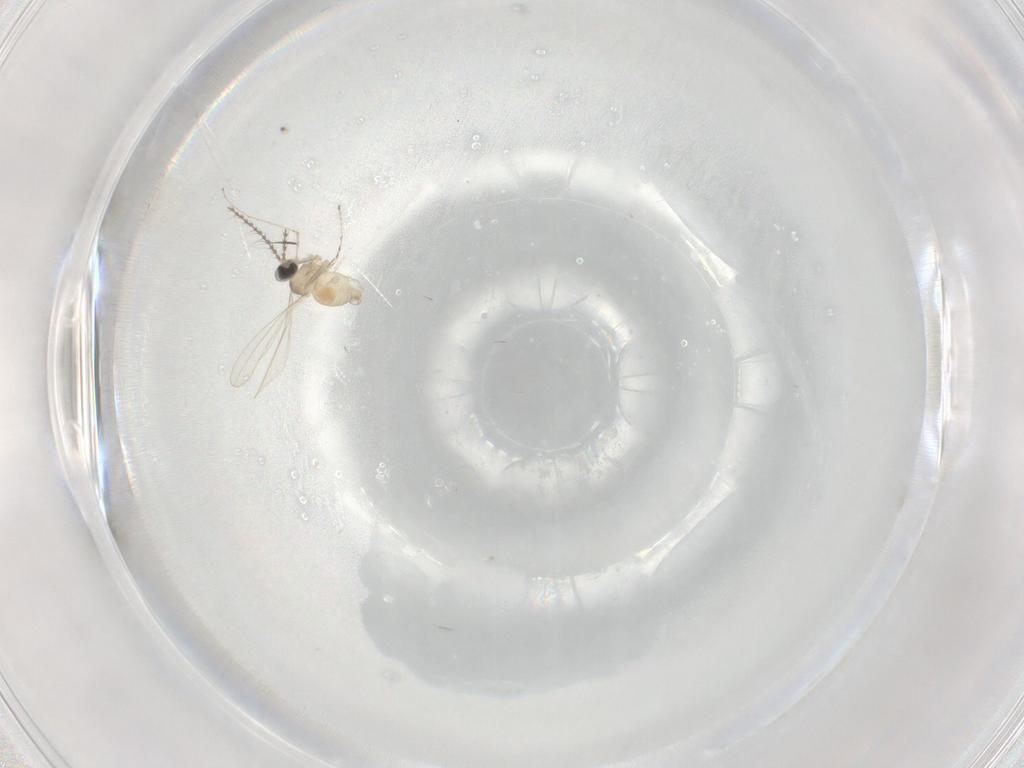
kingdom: Animalia
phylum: Arthropoda
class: Insecta
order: Diptera
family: Cecidomyiidae
